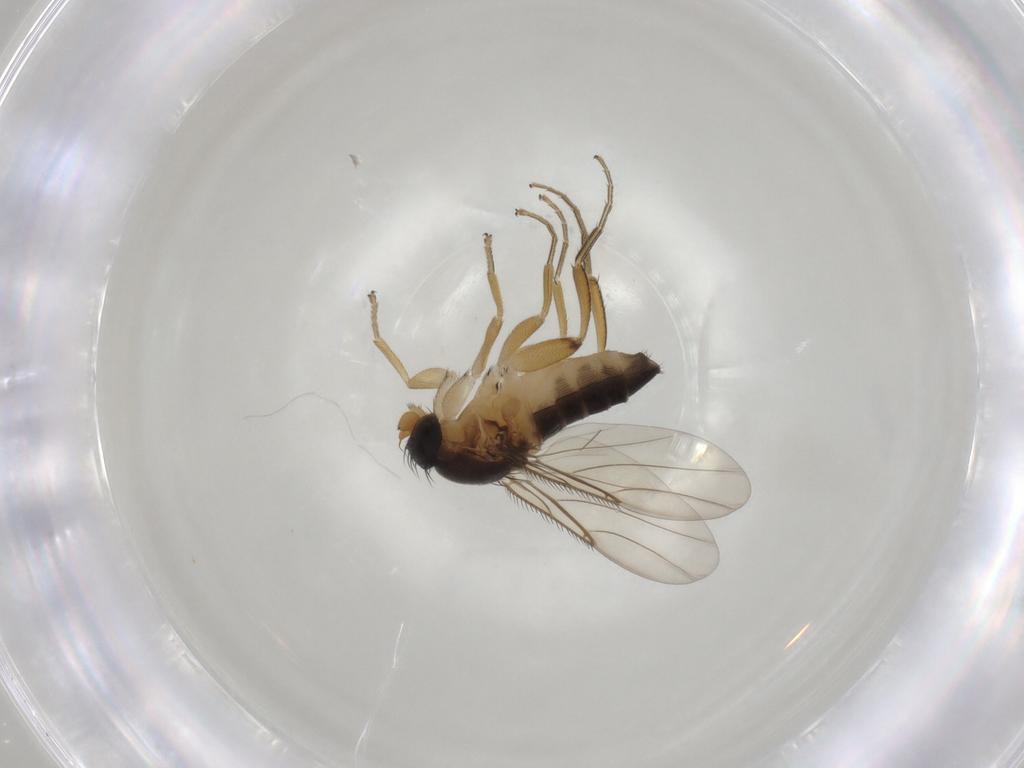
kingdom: Animalia
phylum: Arthropoda
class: Insecta
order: Diptera
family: Phoridae
